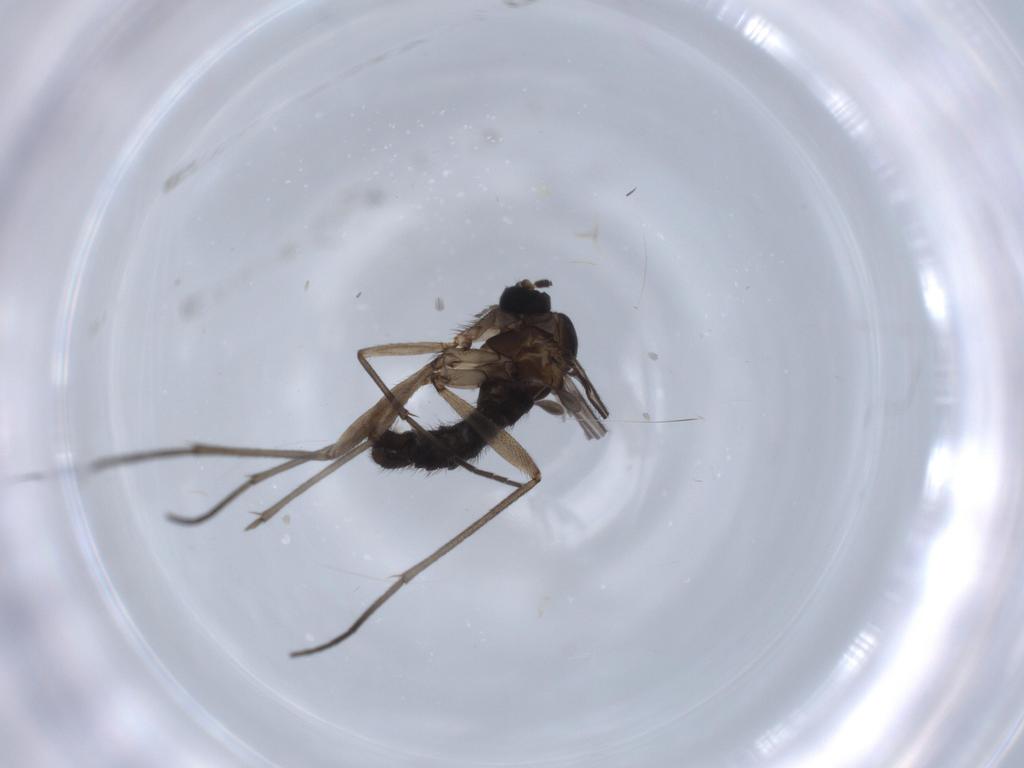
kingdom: Animalia
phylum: Arthropoda
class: Insecta
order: Diptera
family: Sciaridae
